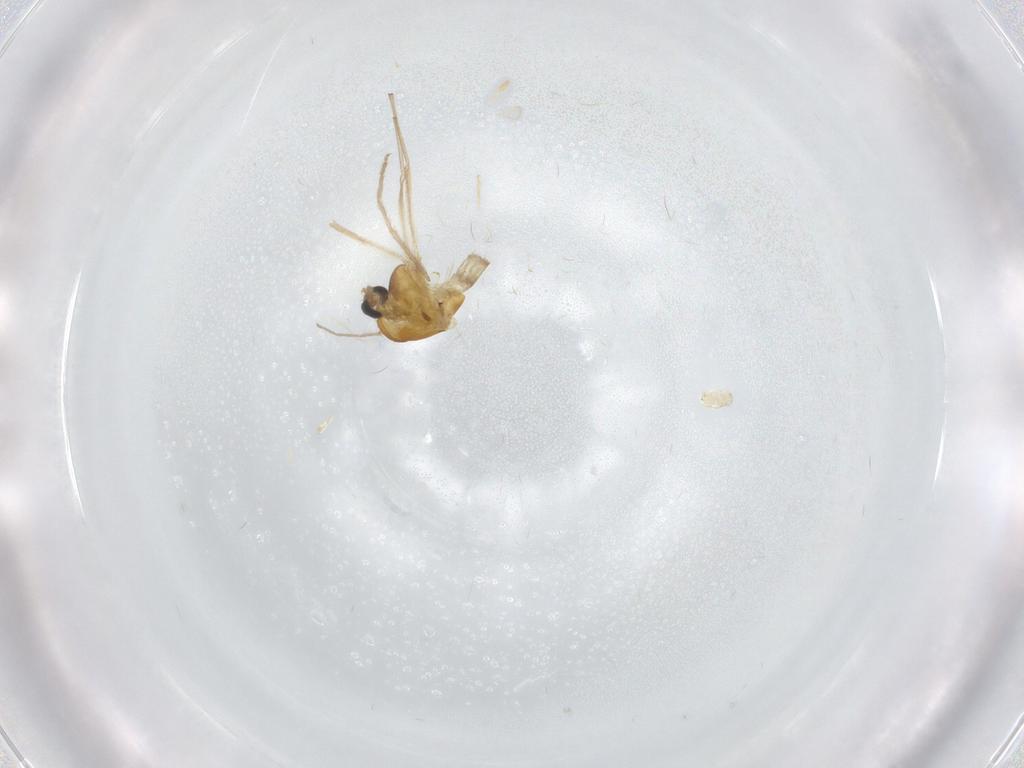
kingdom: Animalia
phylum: Arthropoda
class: Insecta
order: Diptera
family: Chironomidae
